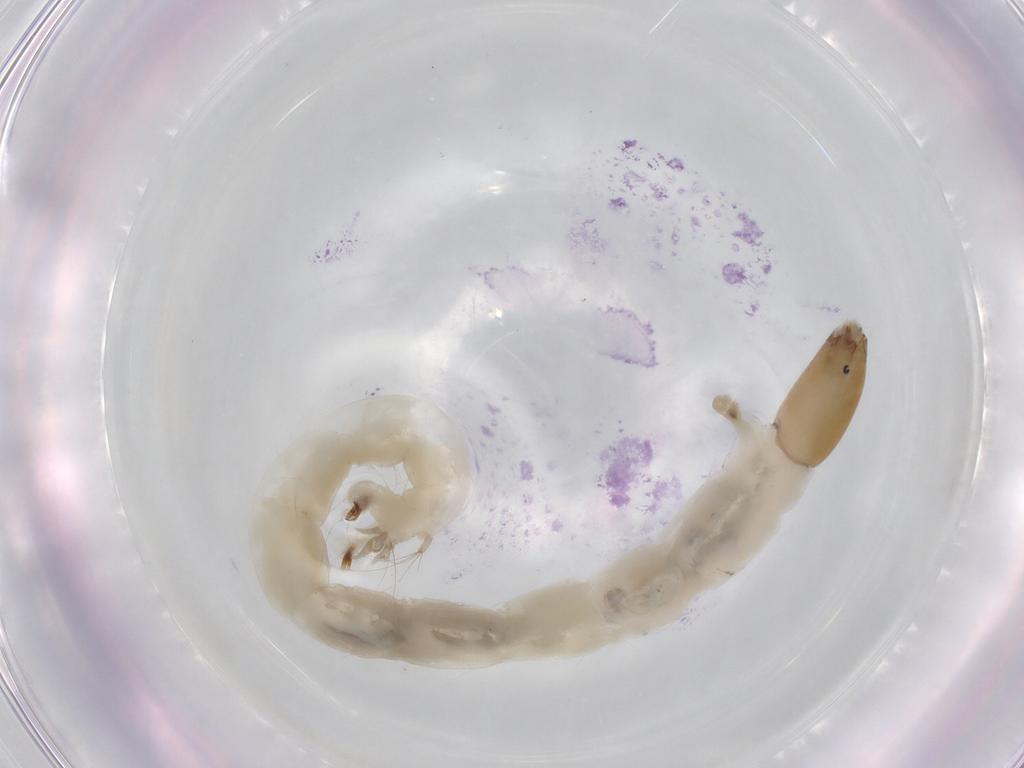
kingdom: Animalia
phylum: Arthropoda
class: Insecta
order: Diptera
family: Chironomidae
